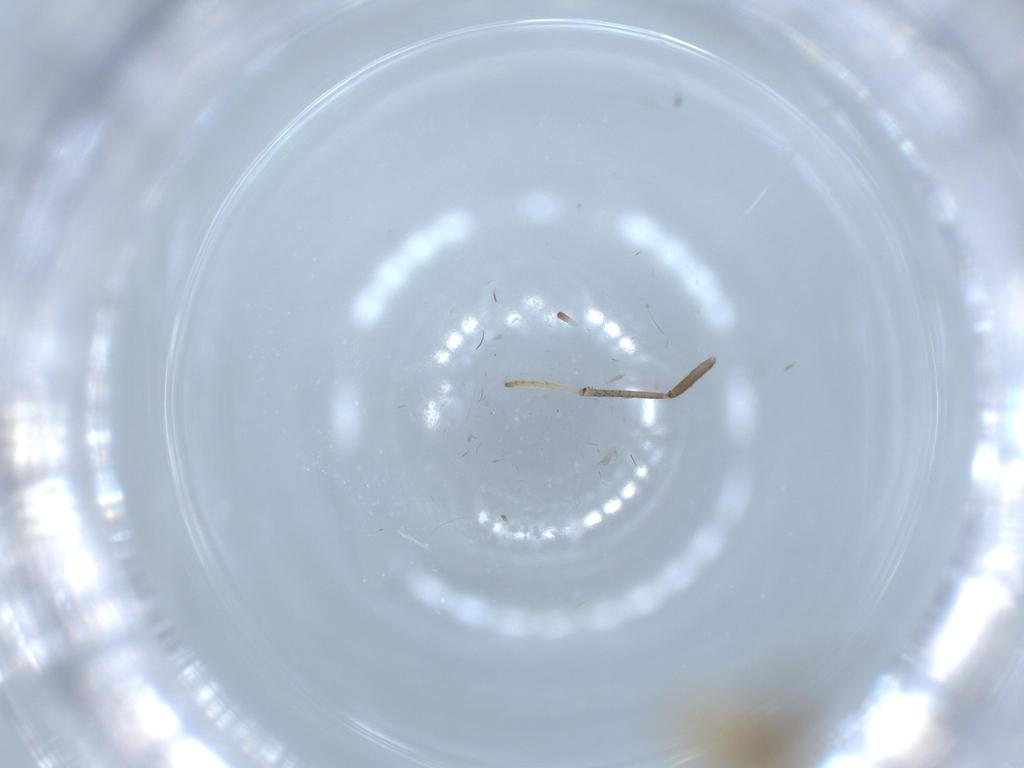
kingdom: Animalia
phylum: Arthropoda
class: Insecta
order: Diptera
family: Chironomidae
